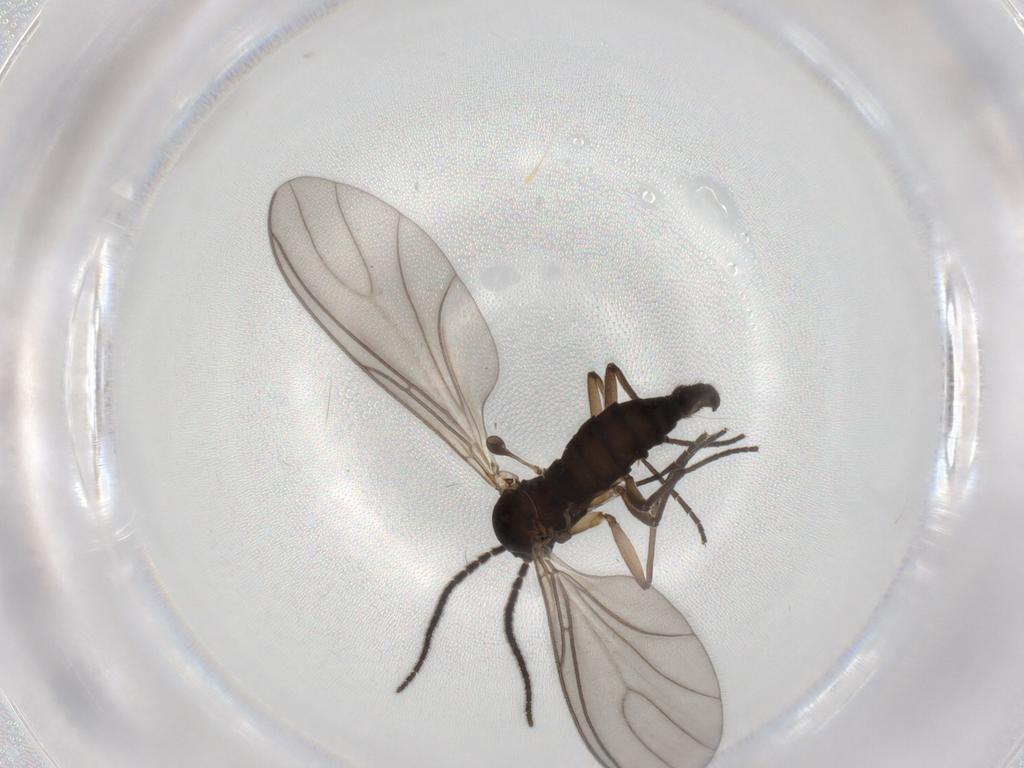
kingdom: Animalia
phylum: Arthropoda
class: Insecta
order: Diptera
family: Sciaridae
